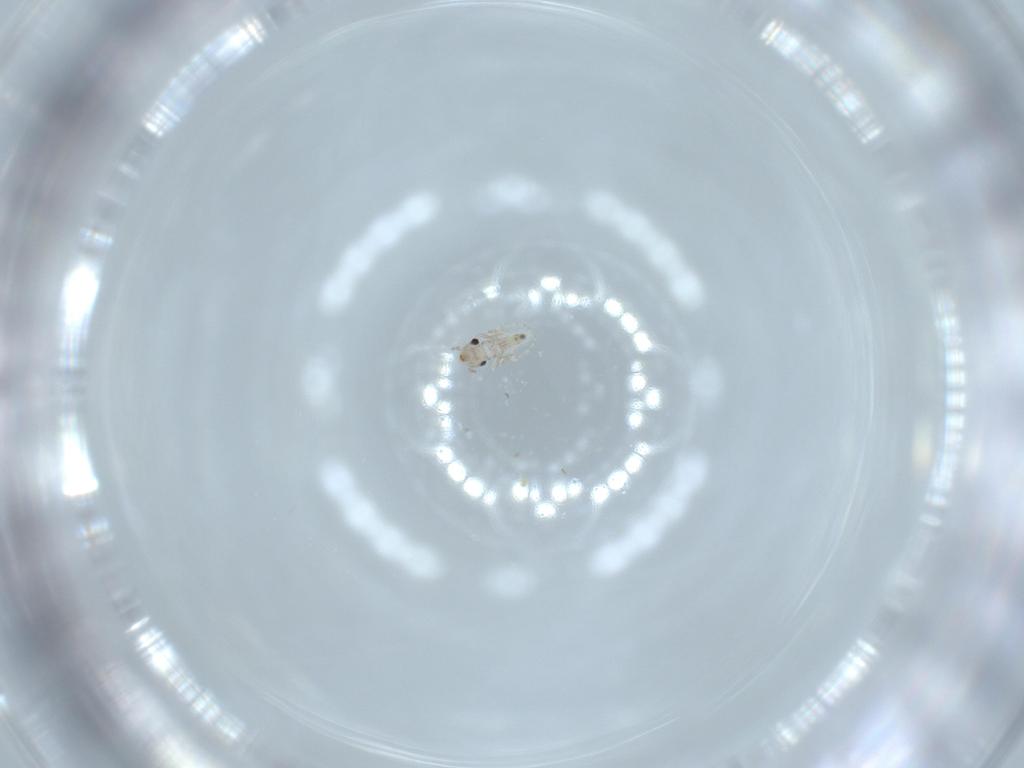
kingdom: Animalia
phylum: Arthropoda
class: Insecta
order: Psocodea
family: Lepidopsocidae
